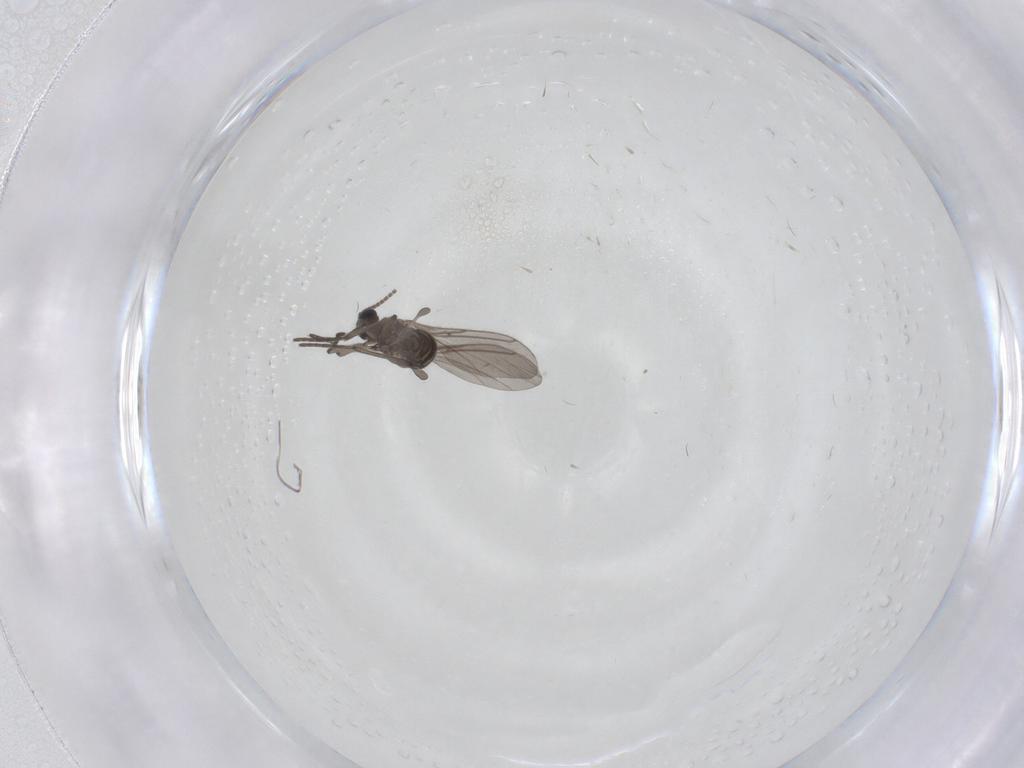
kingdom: Animalia
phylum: Arthropoda
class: Insecta
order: Diptera
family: Sciaridae
